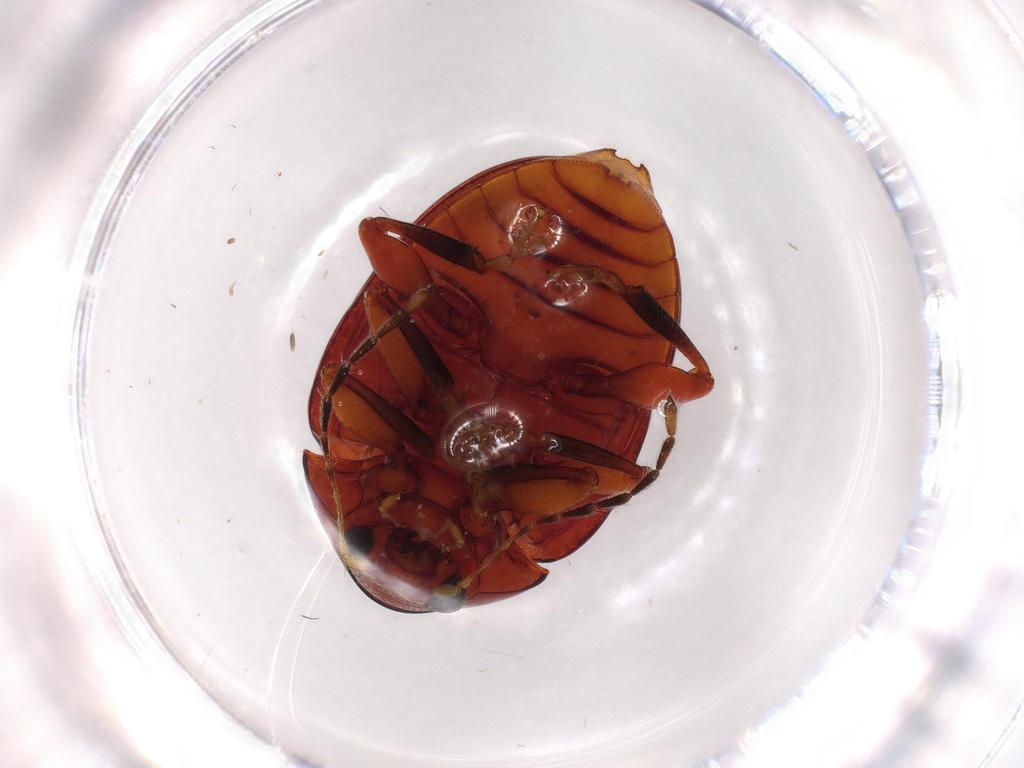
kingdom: Animalia
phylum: Arthropoda
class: Insecta
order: Coleoptera
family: Chrysomelidae
